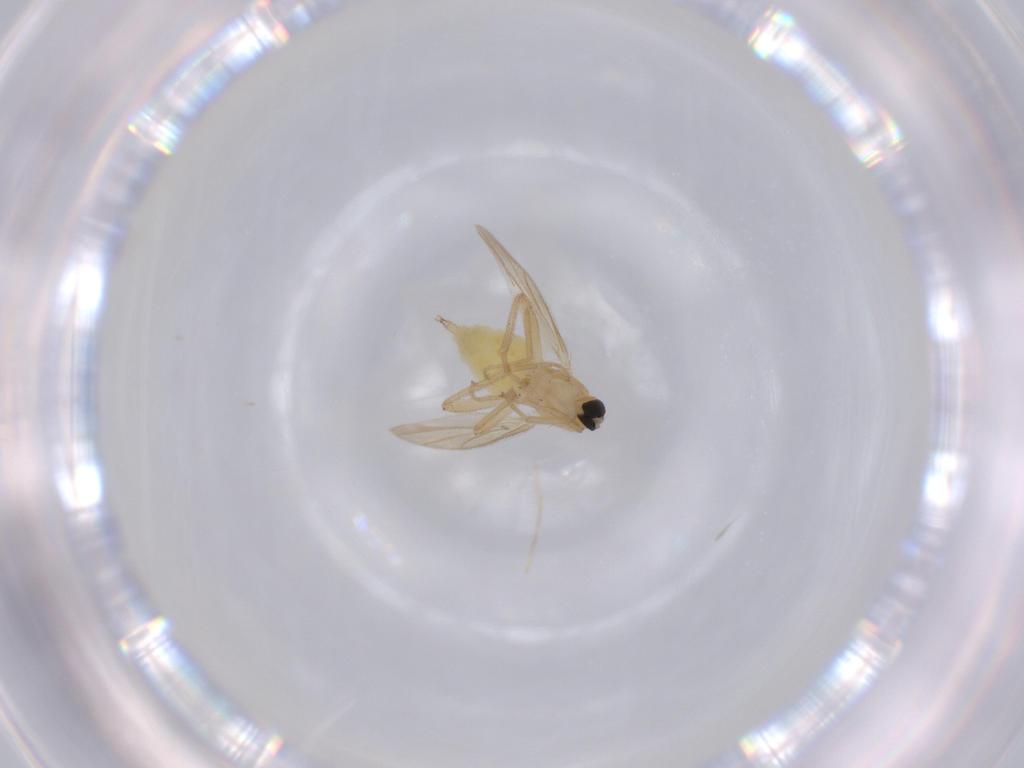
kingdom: Animalia
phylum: Arthropoda
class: Insecta
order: Diptera
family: Hybotidae
